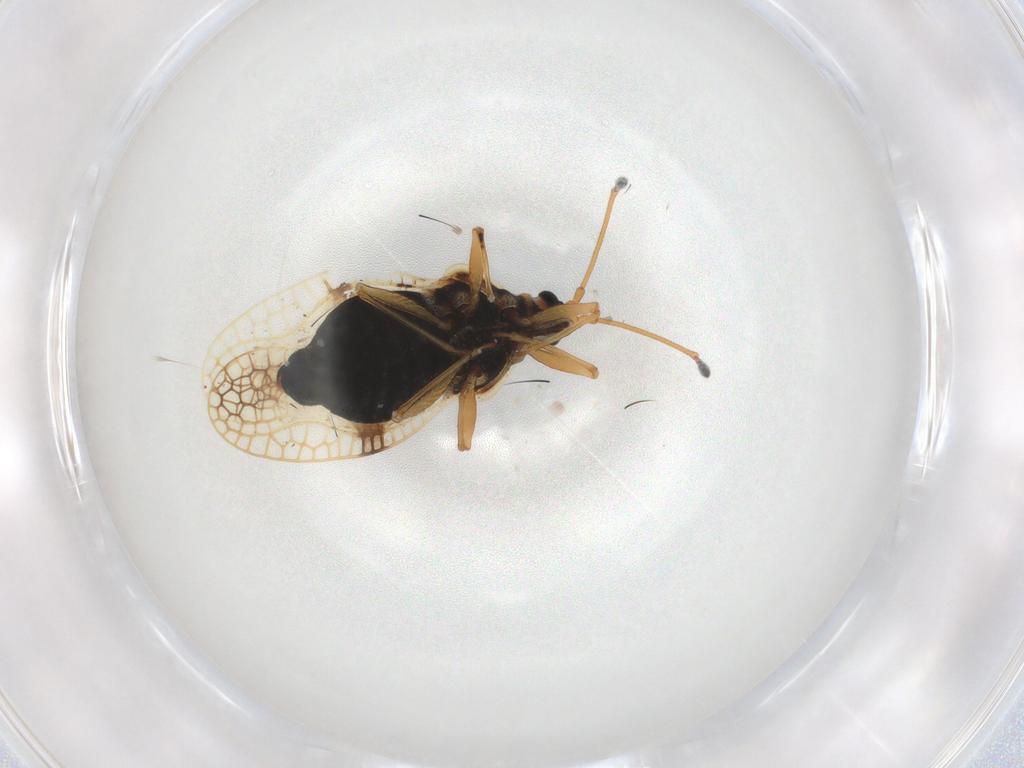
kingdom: Animalia
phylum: Arthropoda
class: Insecta
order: Hemiptera
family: Tingidae
